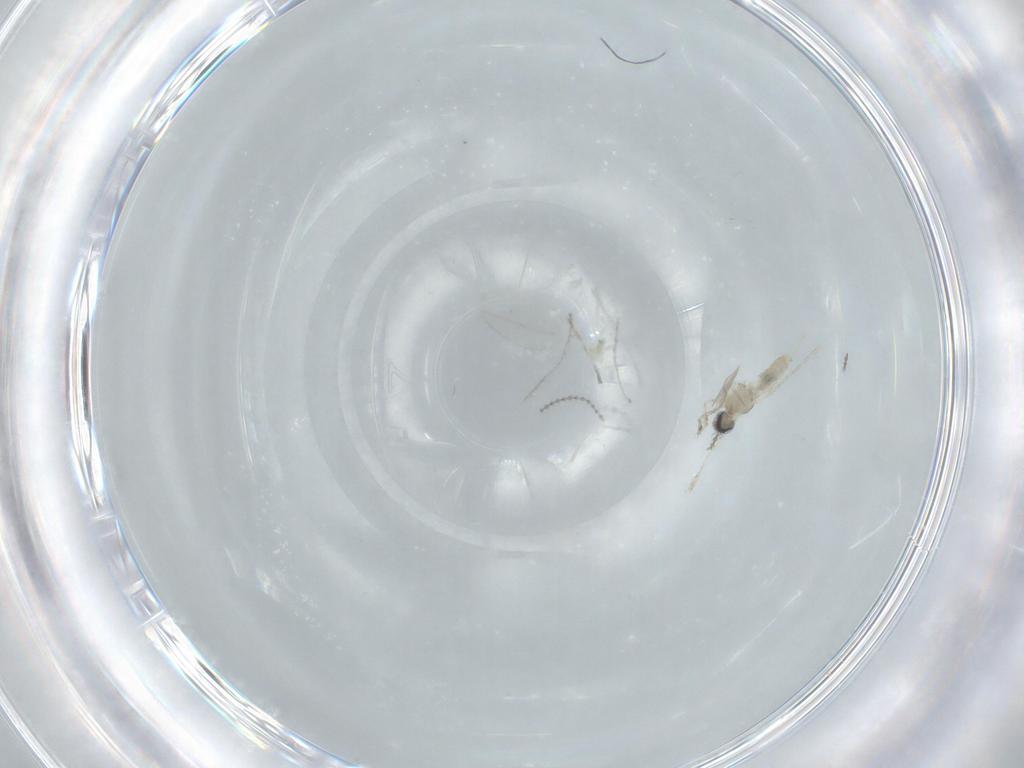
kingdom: Animalia
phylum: Arthropoda
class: Insecta
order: Diptera
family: Cecidomyiidae
